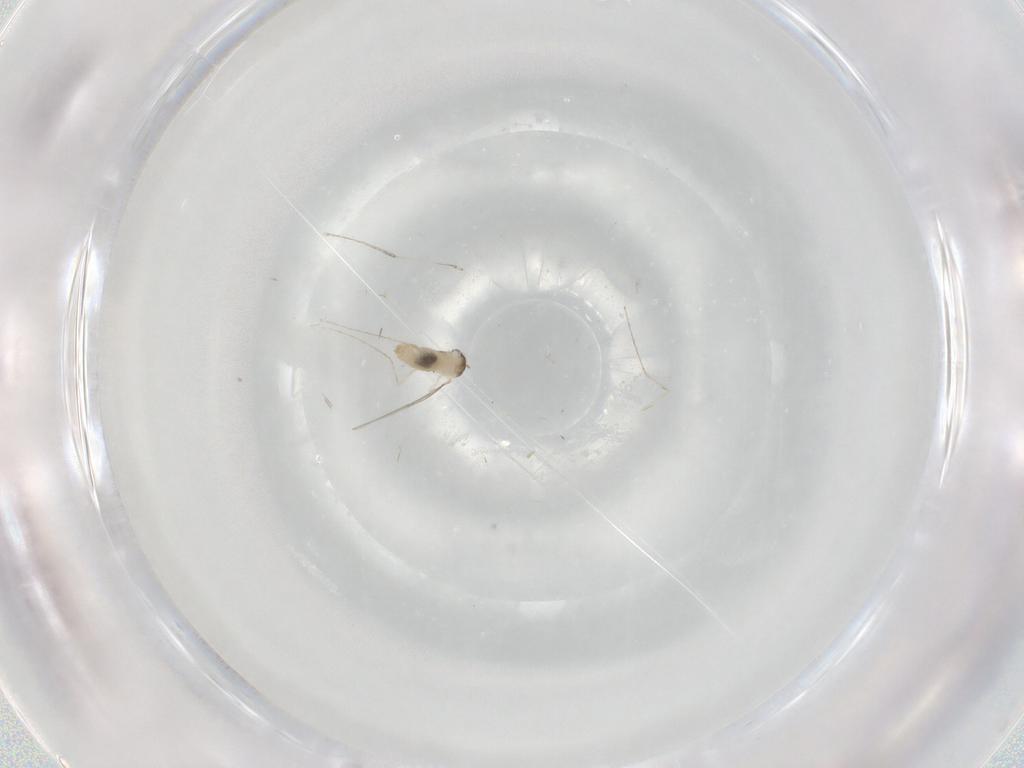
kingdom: Animalia
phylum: Arthropoda
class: Insecta
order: Diptera
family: Cecidomyiidae
